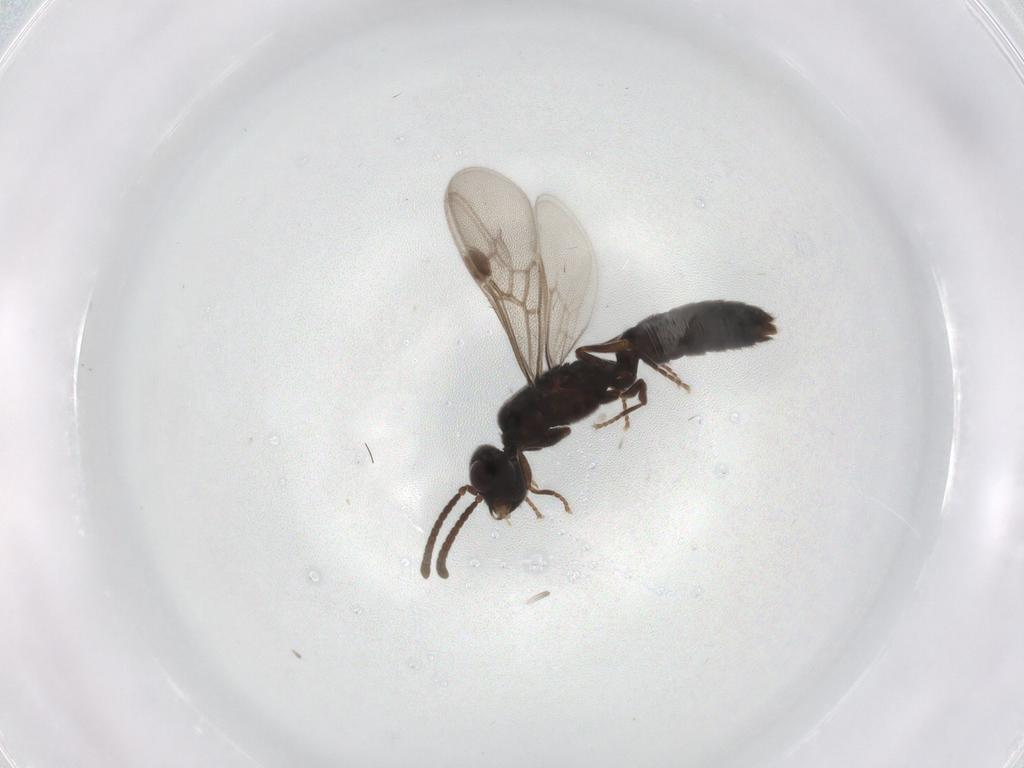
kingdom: Animalia
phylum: Arthropoda
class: Insecta
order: Hymenoptera
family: Formicidae
